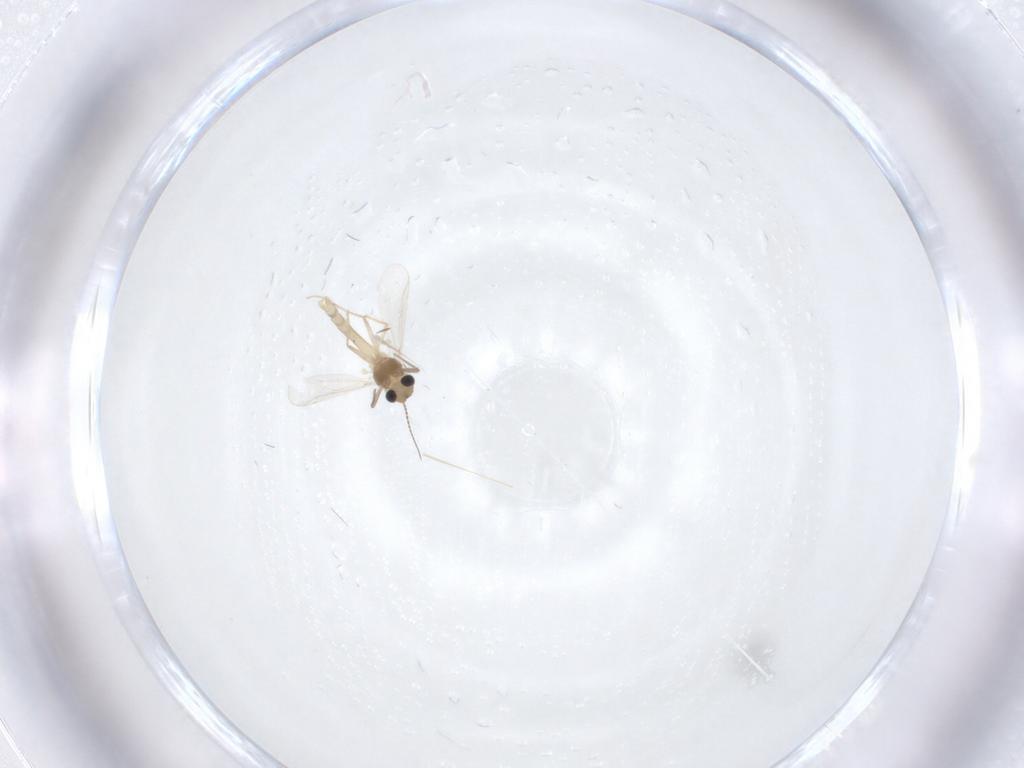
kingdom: Animalia
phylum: Arthropoda
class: Insecta
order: Diptera
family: Chironomidae
